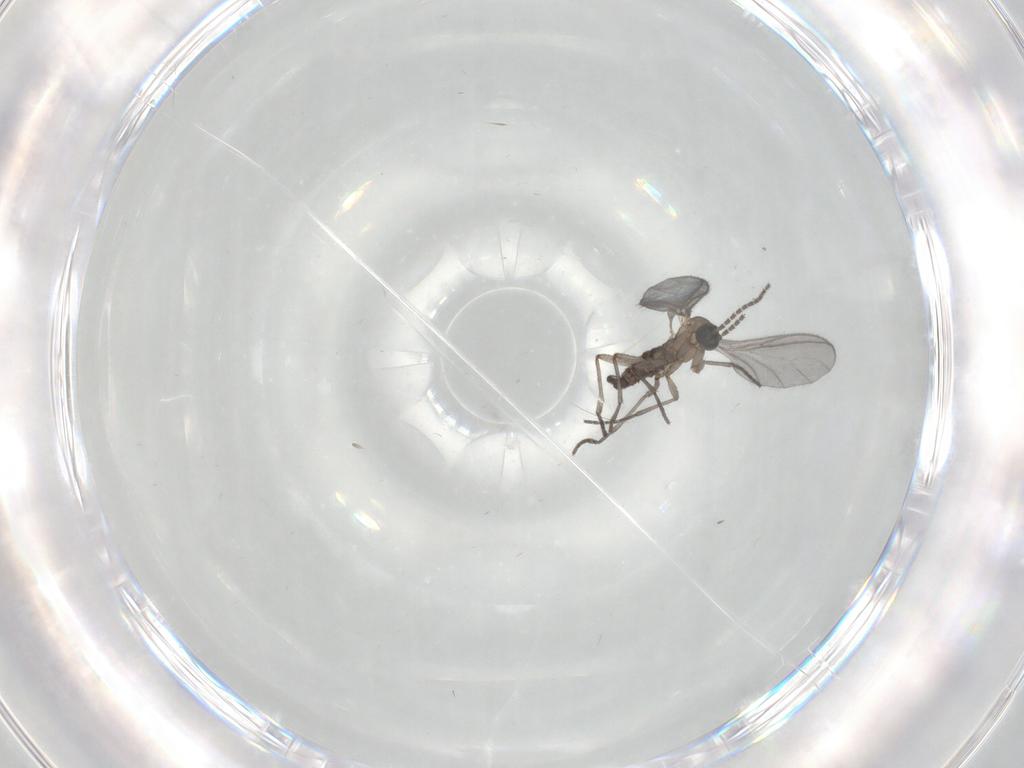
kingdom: Animalia
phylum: Arthropoda
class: Insecta
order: Diptera
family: Sciaridae
